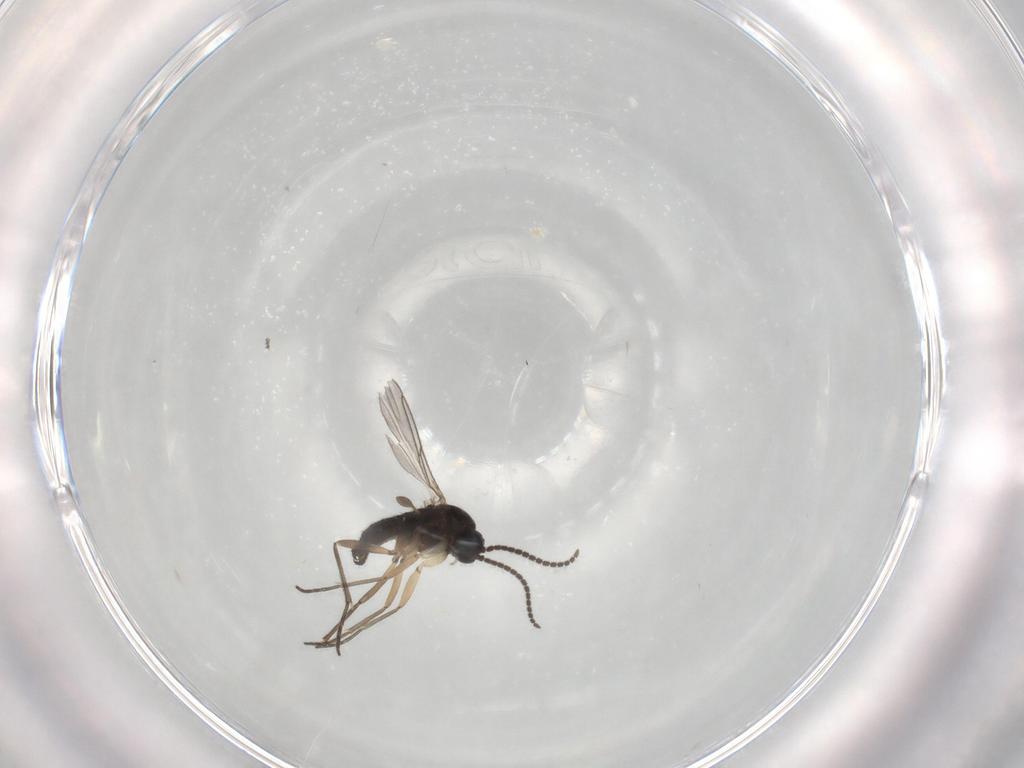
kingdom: Animalia
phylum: Arthropoda
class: Insecta
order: Diptera
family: Sciaridae
